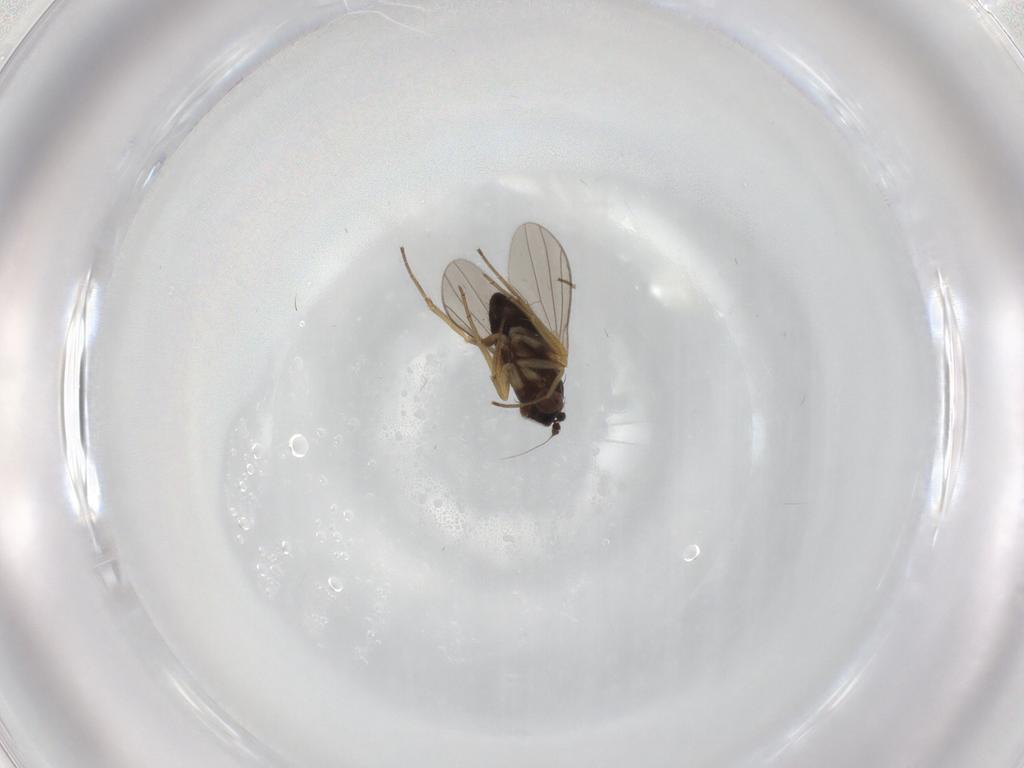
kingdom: Animalia
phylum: Arthropoda
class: Insecta
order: Diptera
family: Dolichopodidae
